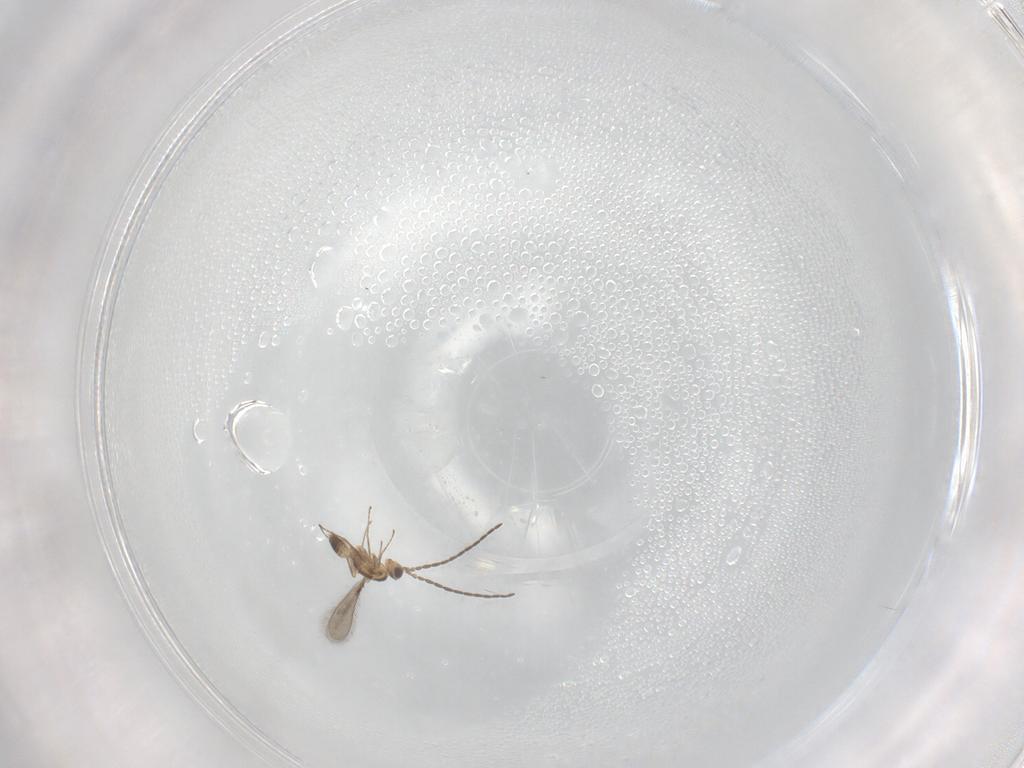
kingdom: Animalia
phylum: Arthropoda
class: Insecta
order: Hymenoptera
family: Mymaridae
